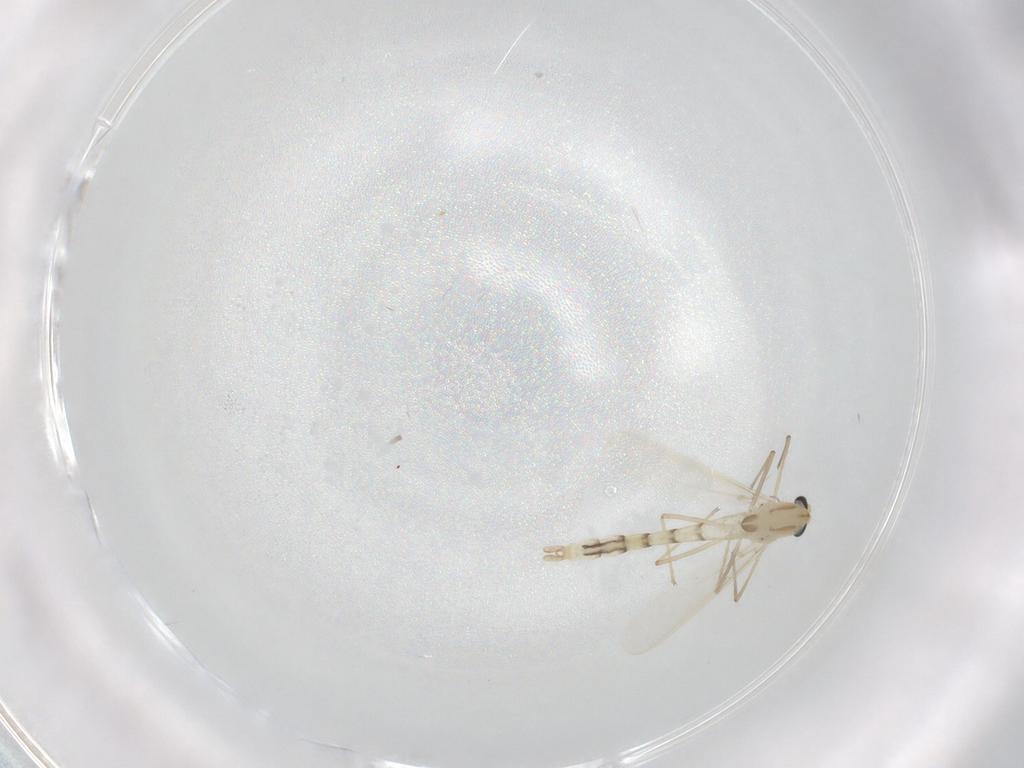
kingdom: Animalia
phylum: Arthropoda
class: Insecta
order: Diptera
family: Chironomidae
